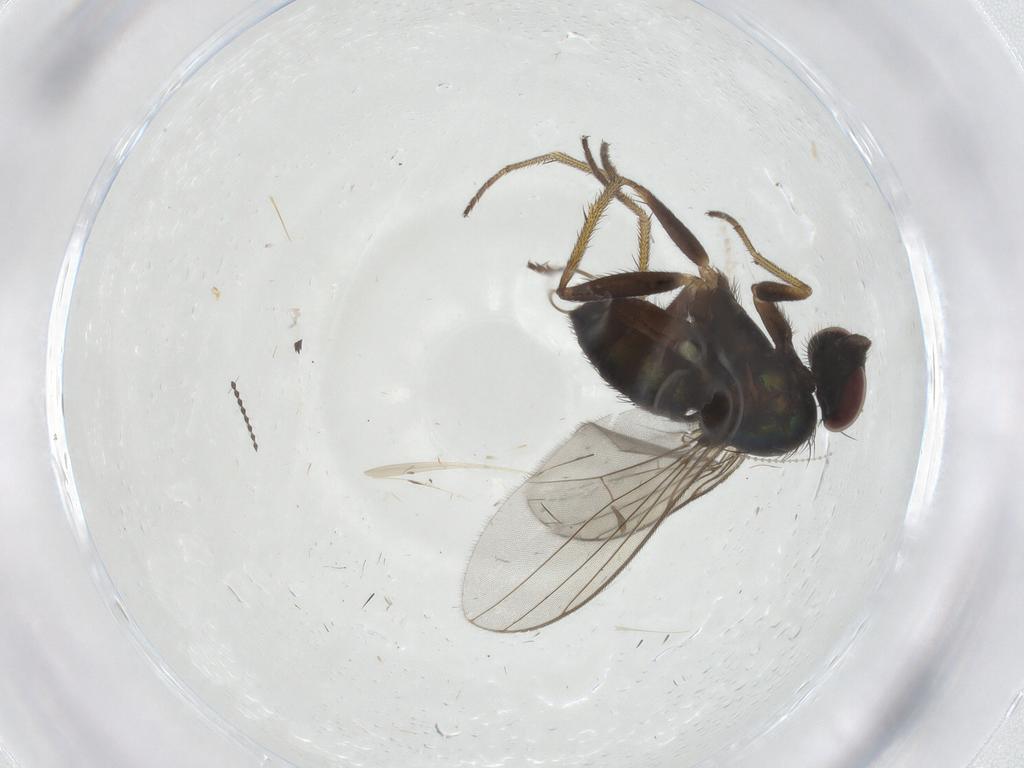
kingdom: Animalia
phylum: Arthropoda
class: Insecta
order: Diptera
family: Dolichopodidae
